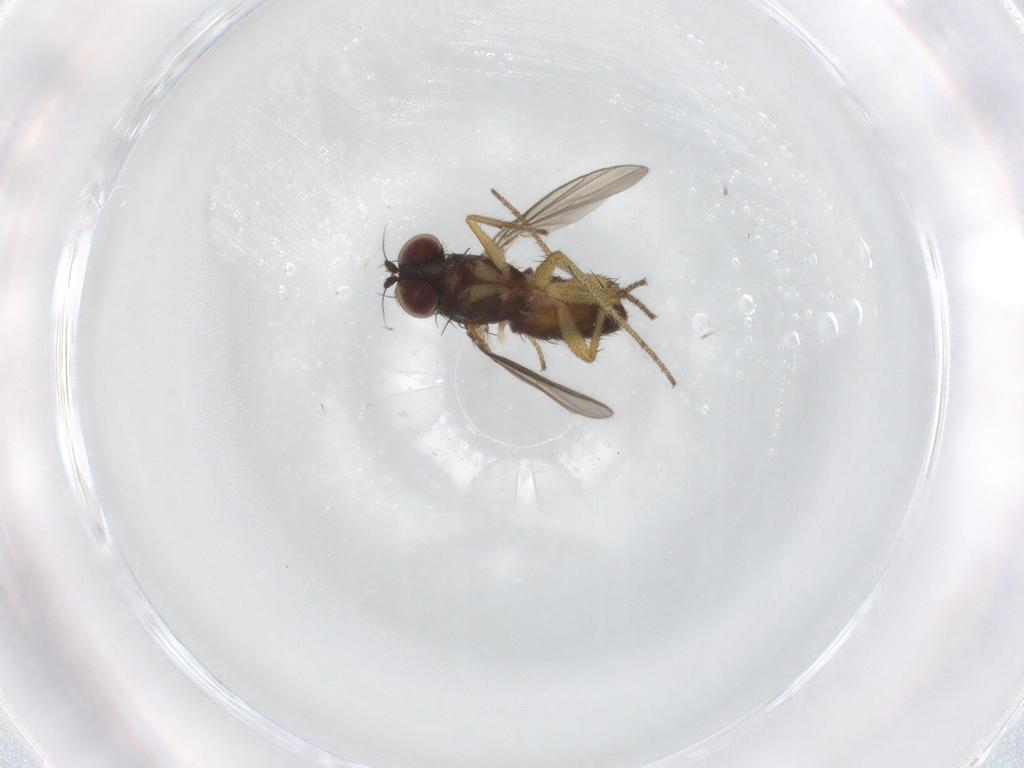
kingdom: Animalia
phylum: Arthropoda
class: Insecta
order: Diptera
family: Dolichopodidae
